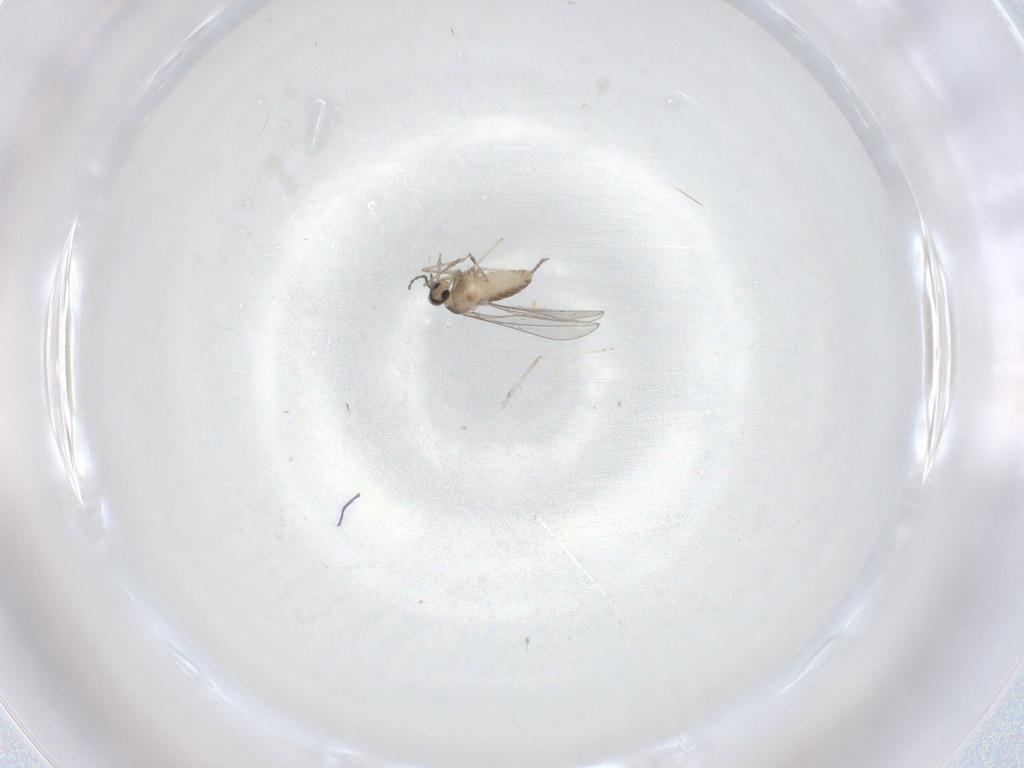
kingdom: Animalia
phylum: Arthropoda
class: Insecta
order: Diptera
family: Cecidomyiidae
